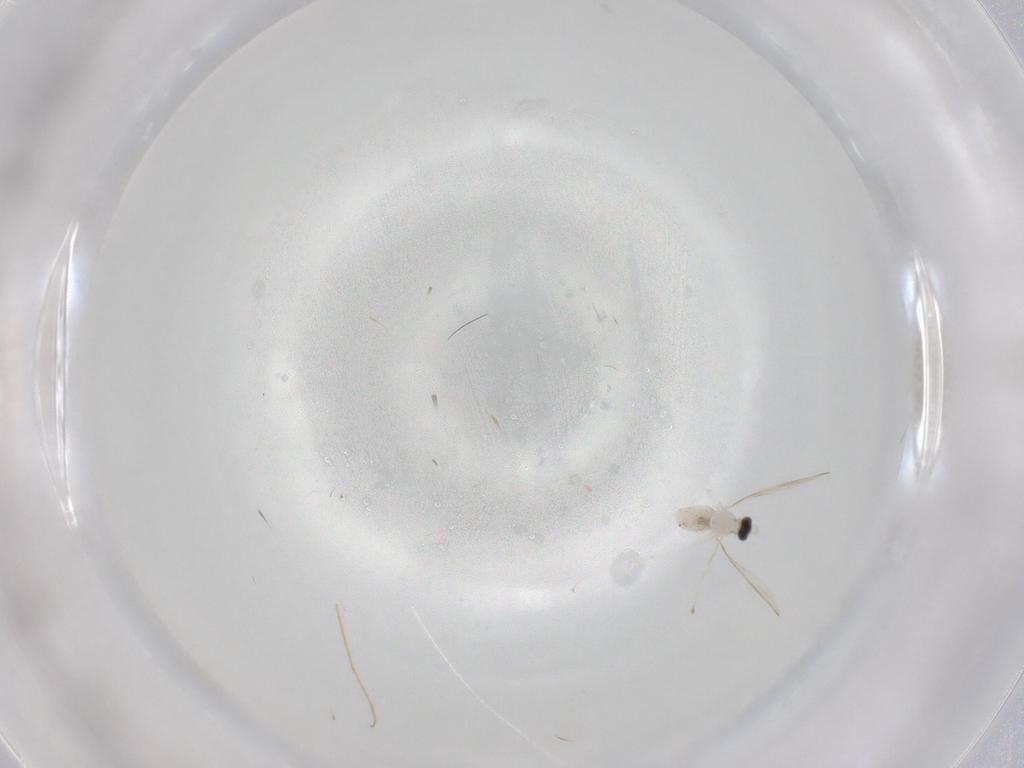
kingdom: Animalia
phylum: Arthropoda
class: Insecta
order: Diptera
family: Cecidomyiidae
